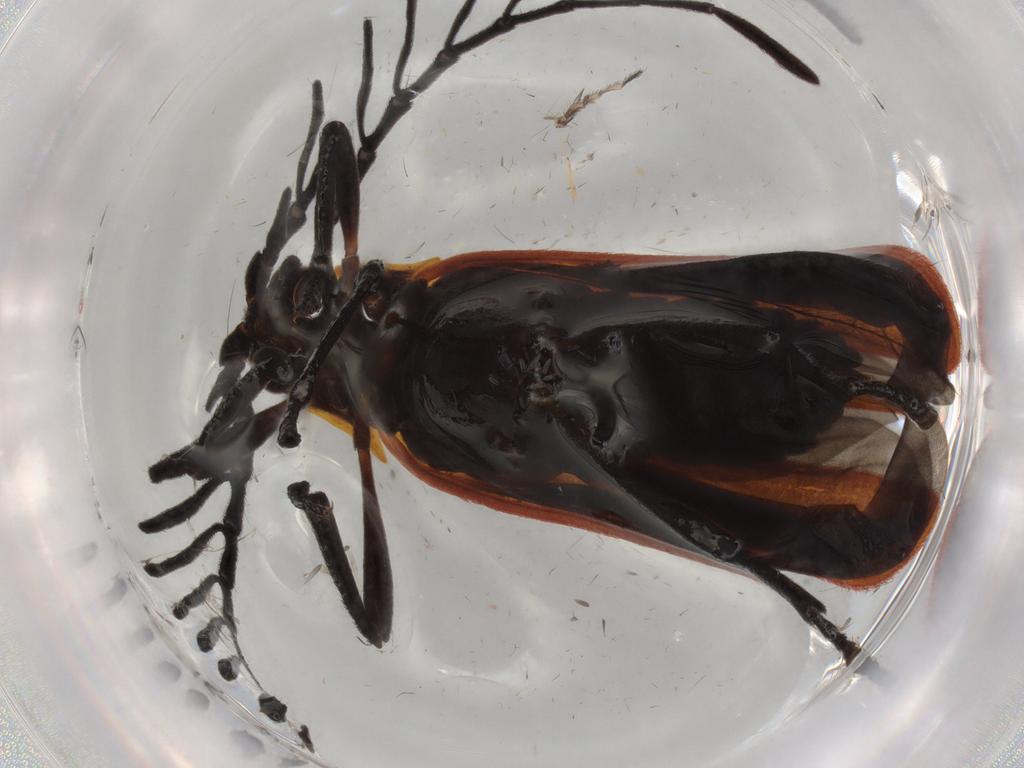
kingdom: Animalia
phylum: Arthropoda
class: Insecta
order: Coleoptera
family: Lycidae
